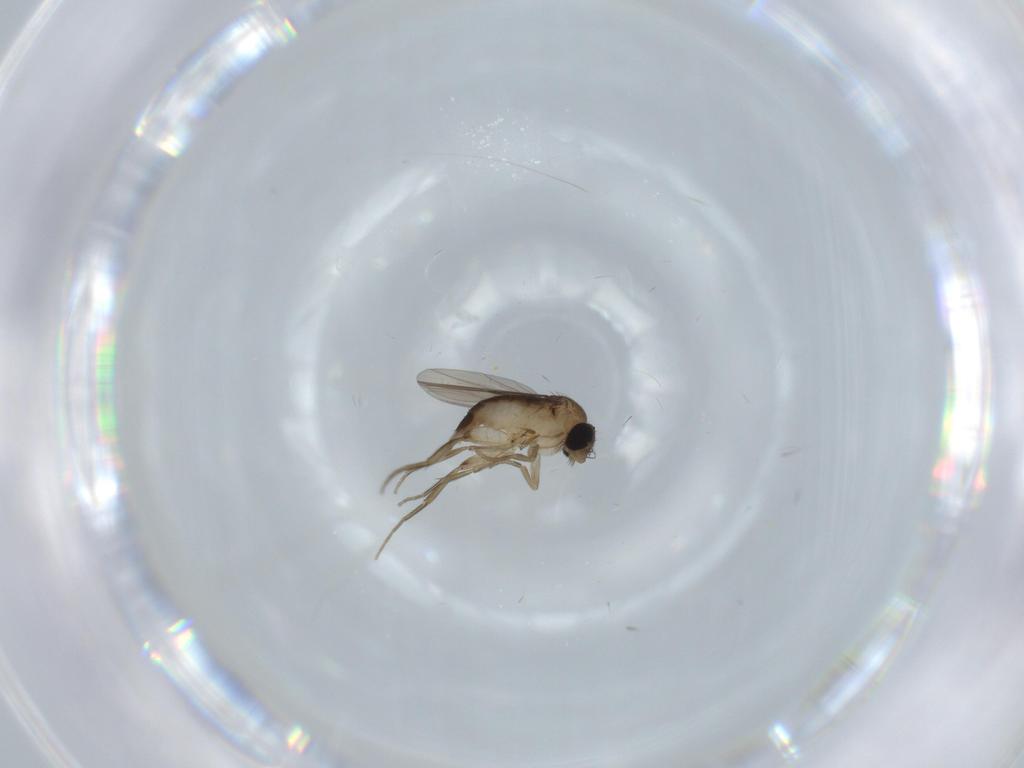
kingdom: Animalia
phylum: Arthropoda
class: Insecta
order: Diptera
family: Phoridae
